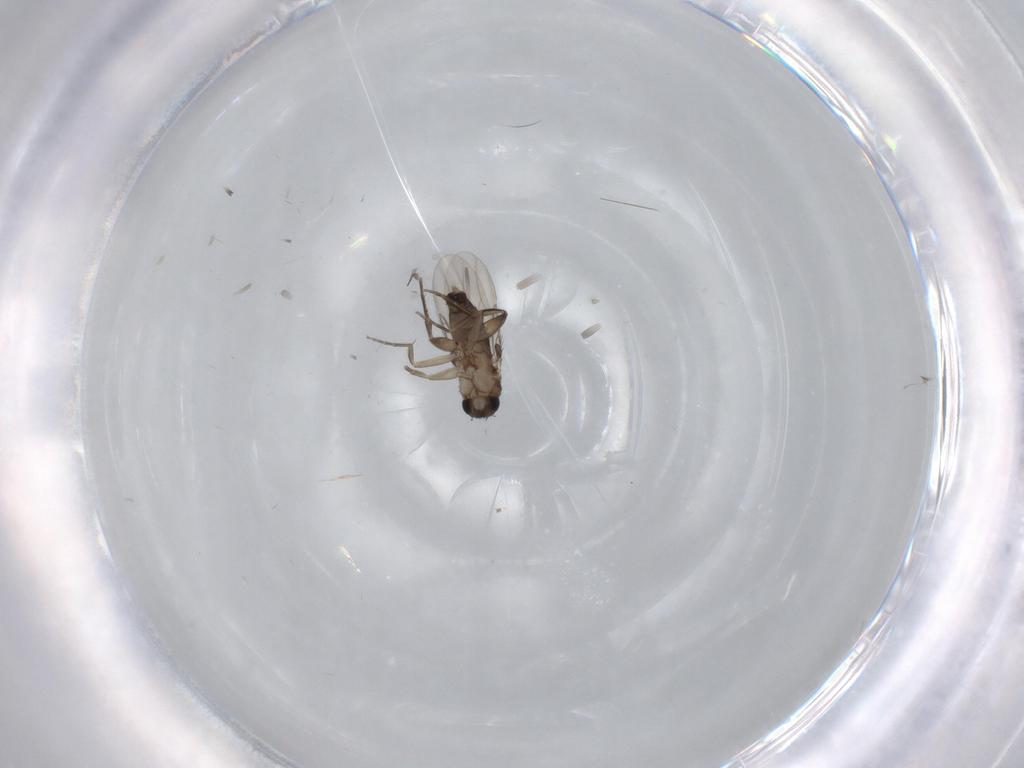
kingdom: Animalia
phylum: Arthropoda
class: Insecta
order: Diptera
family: Phoridae
